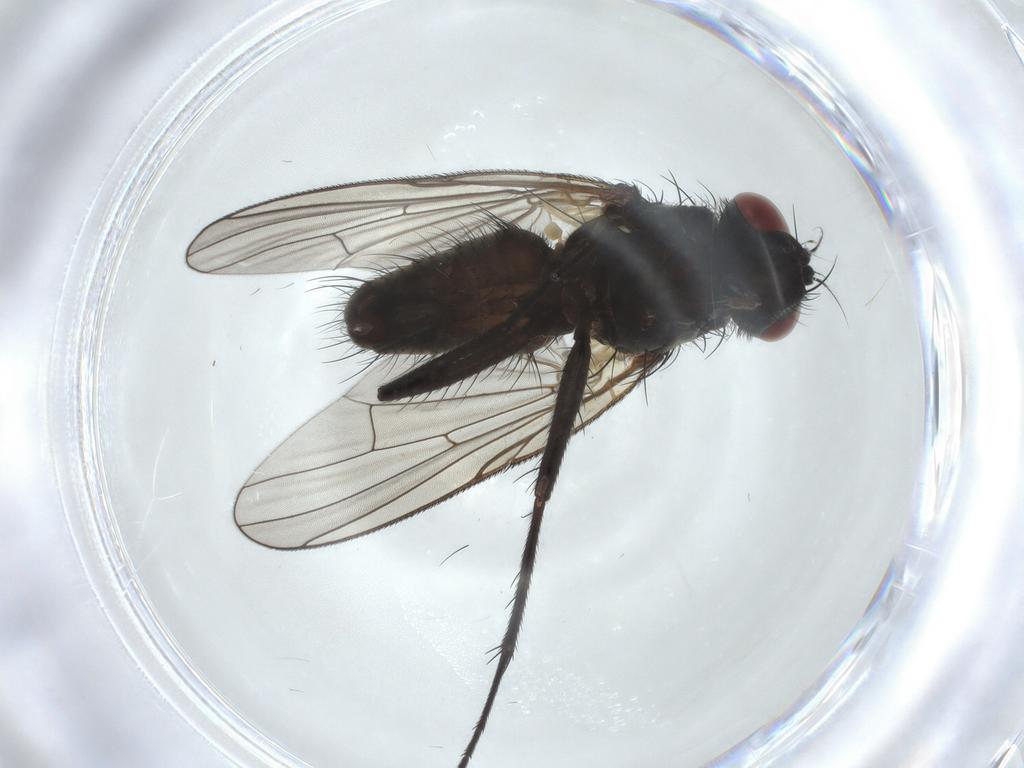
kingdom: Animalia
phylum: Arthropoda
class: Insecta
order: Diptera
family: Muscidae
